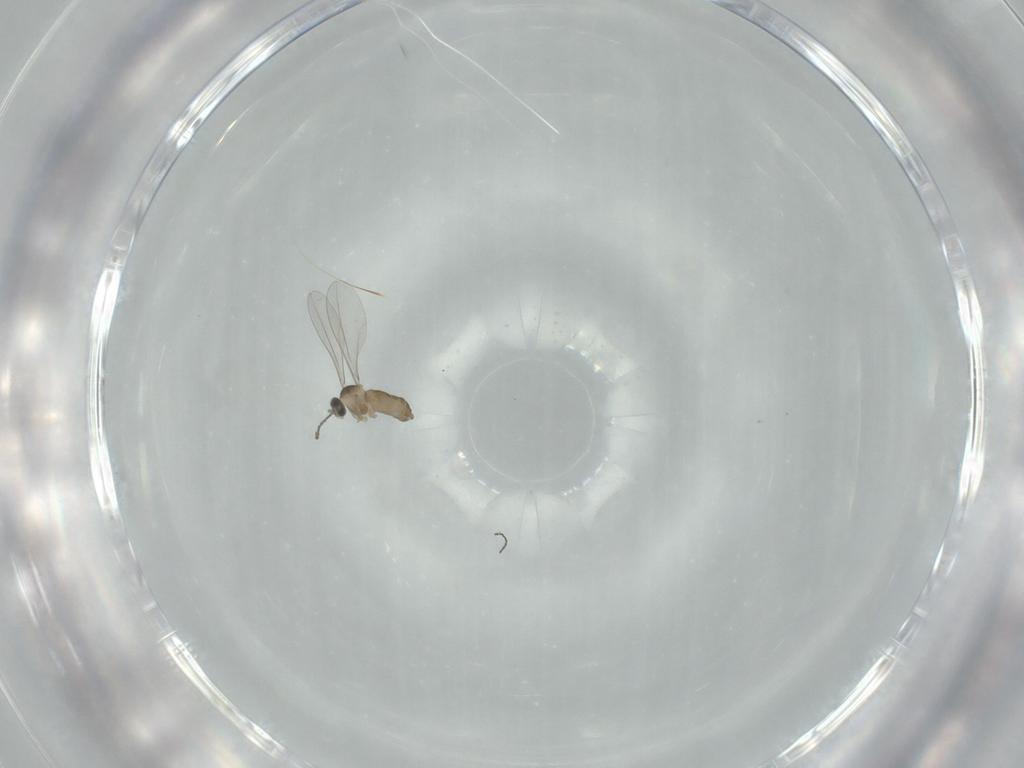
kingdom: Animalia
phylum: Arthropoda
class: Insecta
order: Diptera
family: Cecidomyiidae
